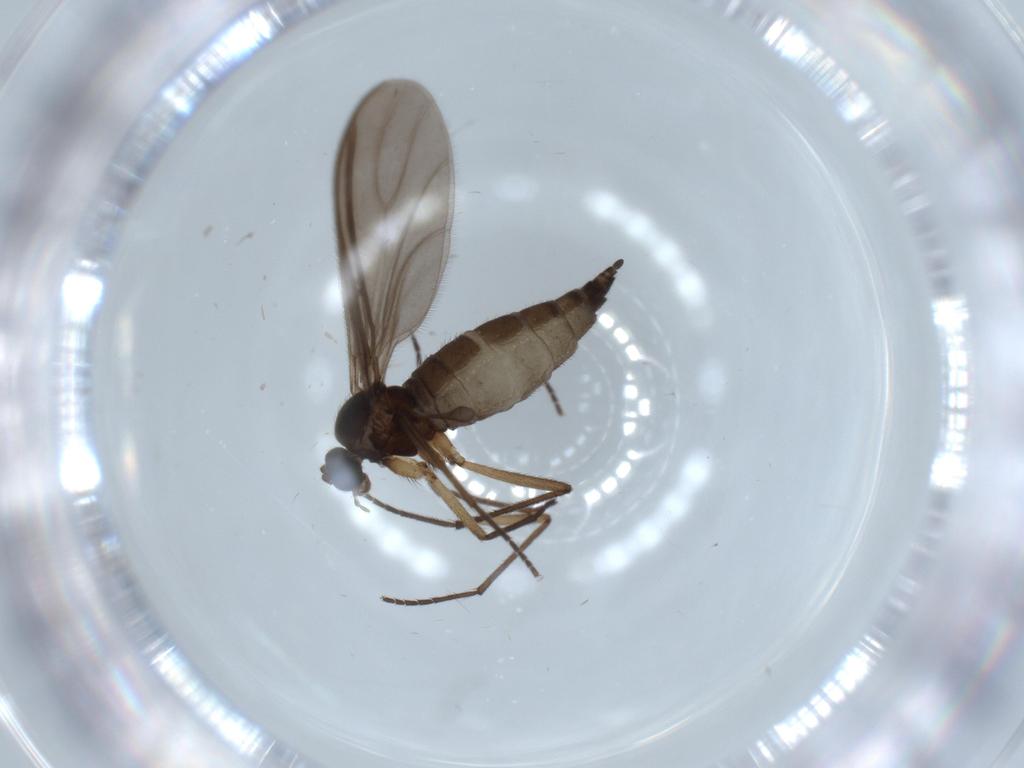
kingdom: Animalia
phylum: Arthropoda
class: Insecta
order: Diptera
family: Sciaridae
